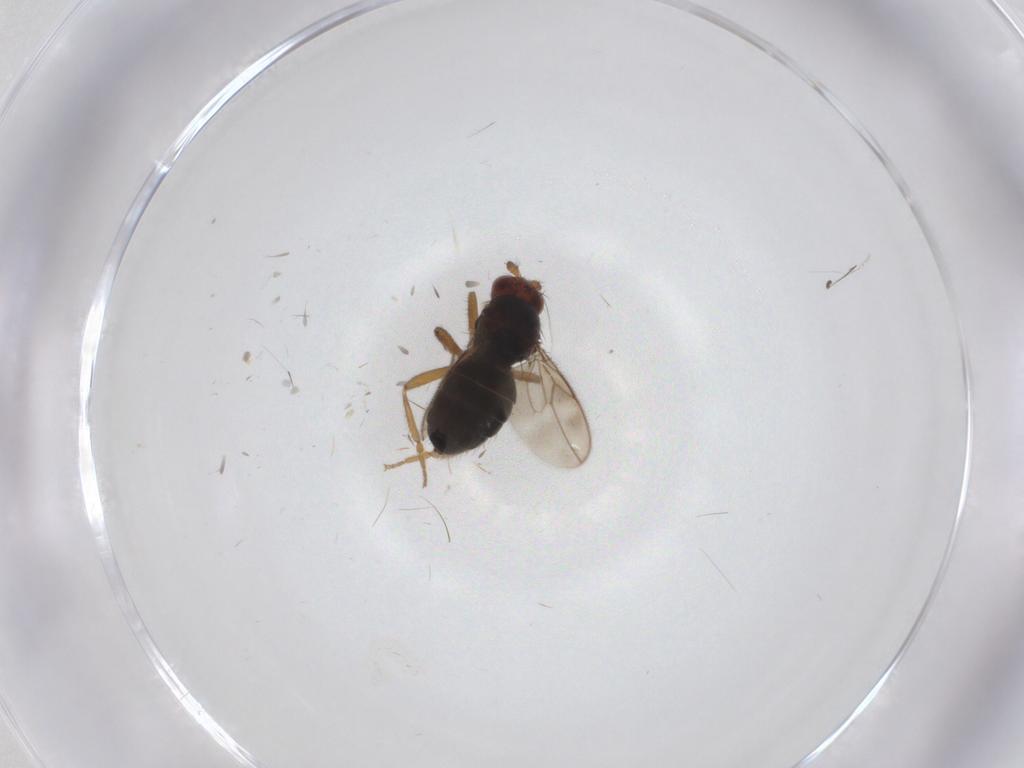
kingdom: Animalia
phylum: Arthropoda
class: Insecta
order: Diptera
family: Sphaeroceridae
